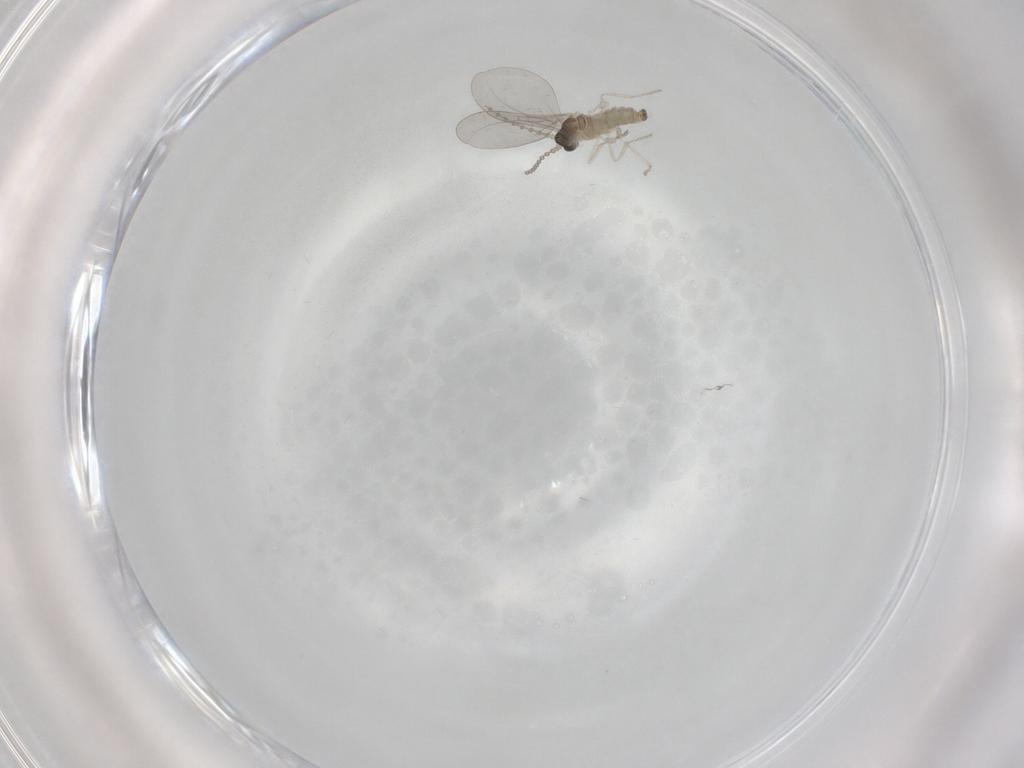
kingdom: Animalia
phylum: Arthropoda
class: Insecta
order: Diptera
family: Cecidomyiidae
